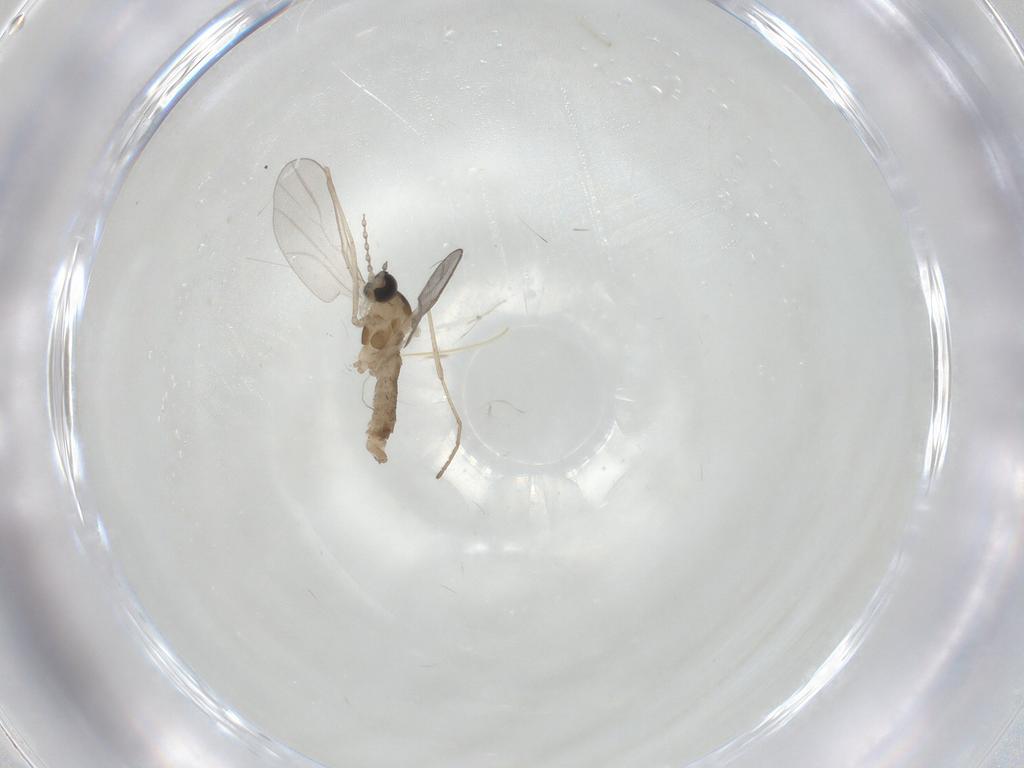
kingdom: Animalia
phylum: Arthropoda
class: Insecta
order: Diptera
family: Cecidomyiidae
